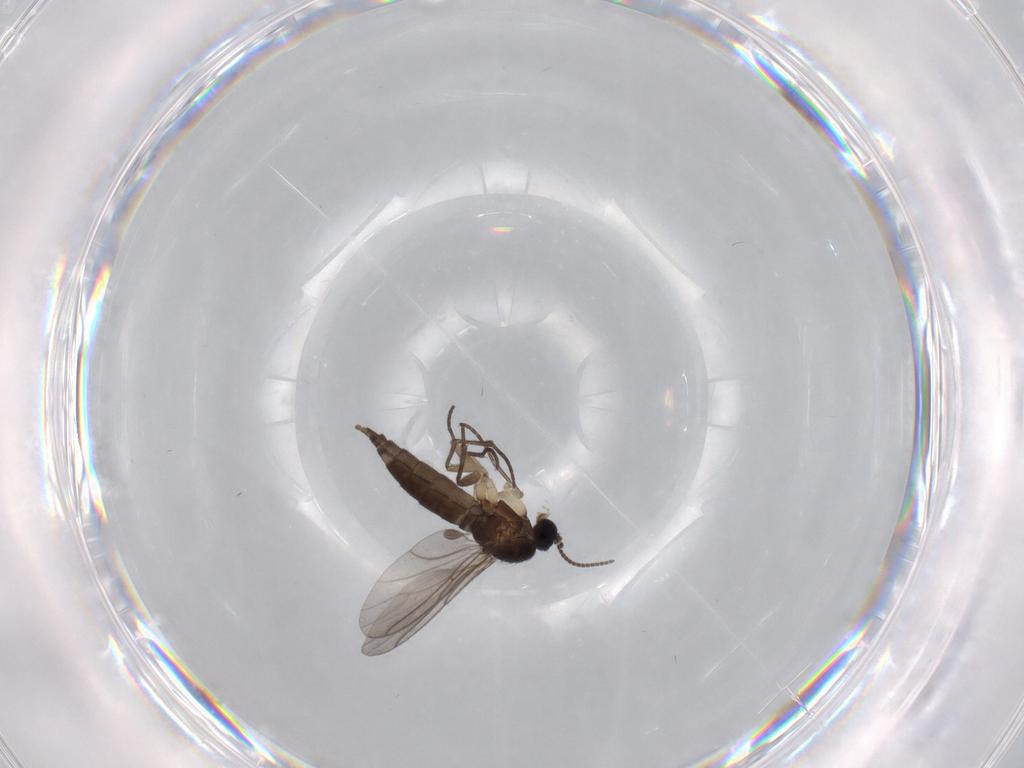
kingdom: Animalia
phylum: Arthropoda
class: Insecta
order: Diptera
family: Sciaridae
